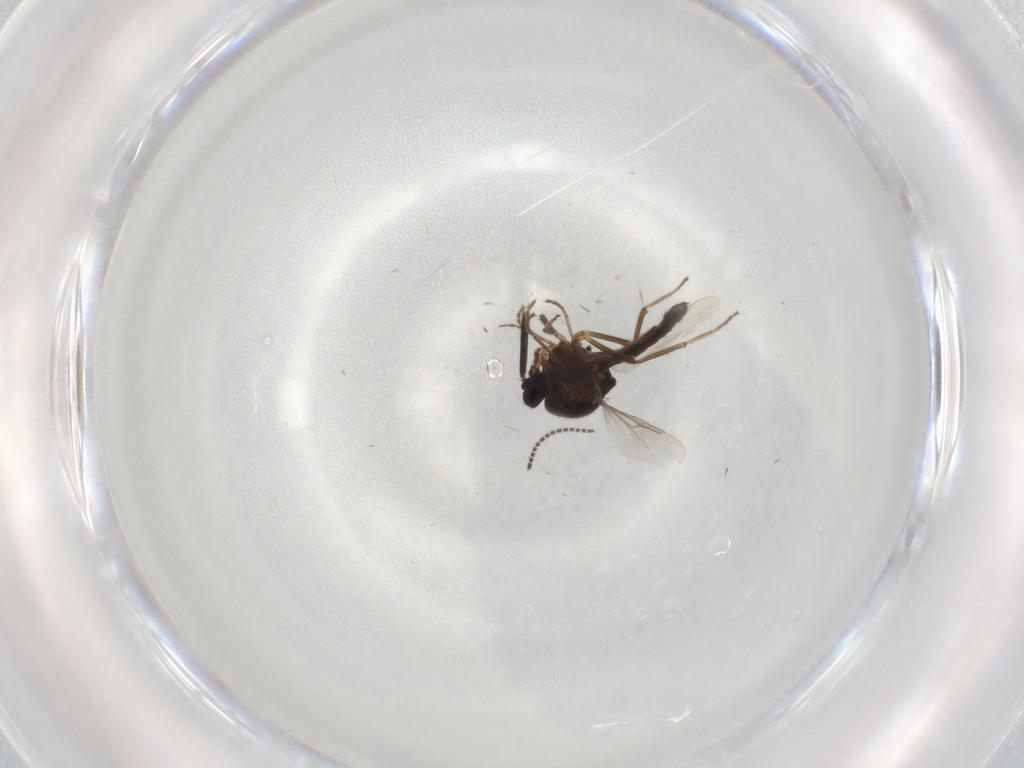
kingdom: Animalia
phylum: Arthropoda
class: Insecta
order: Diptera
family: Ceratopogonidae
